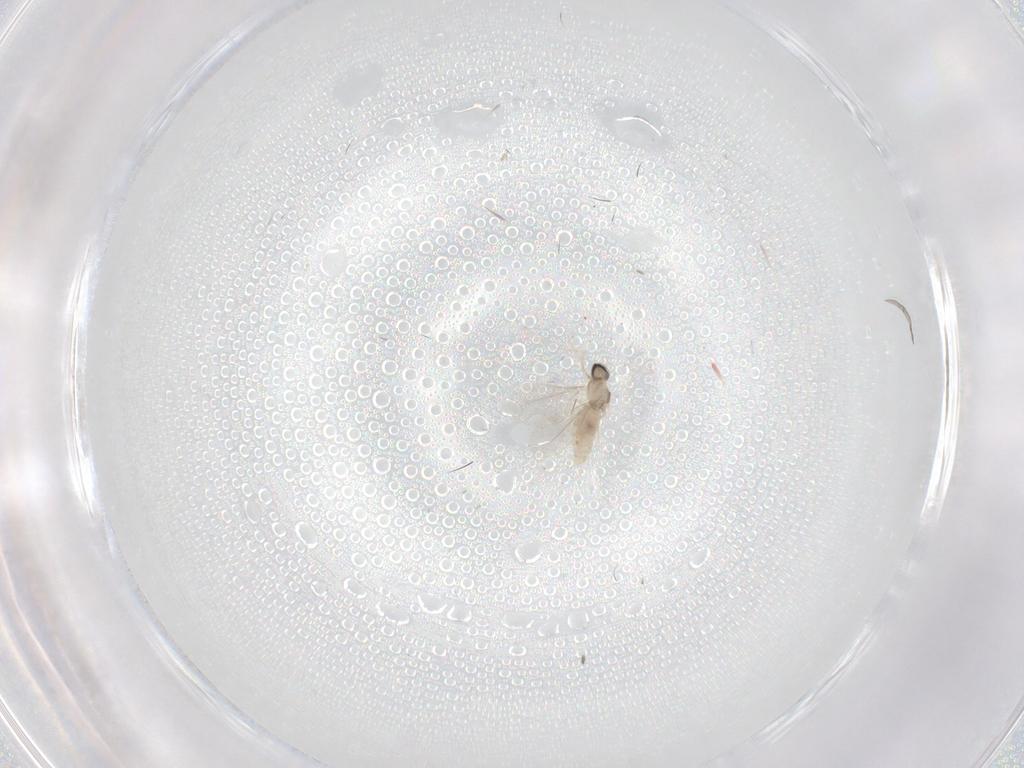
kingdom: Animalia
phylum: Arthropoda
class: Insecta
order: Diptera
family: Cecidomyiidae
